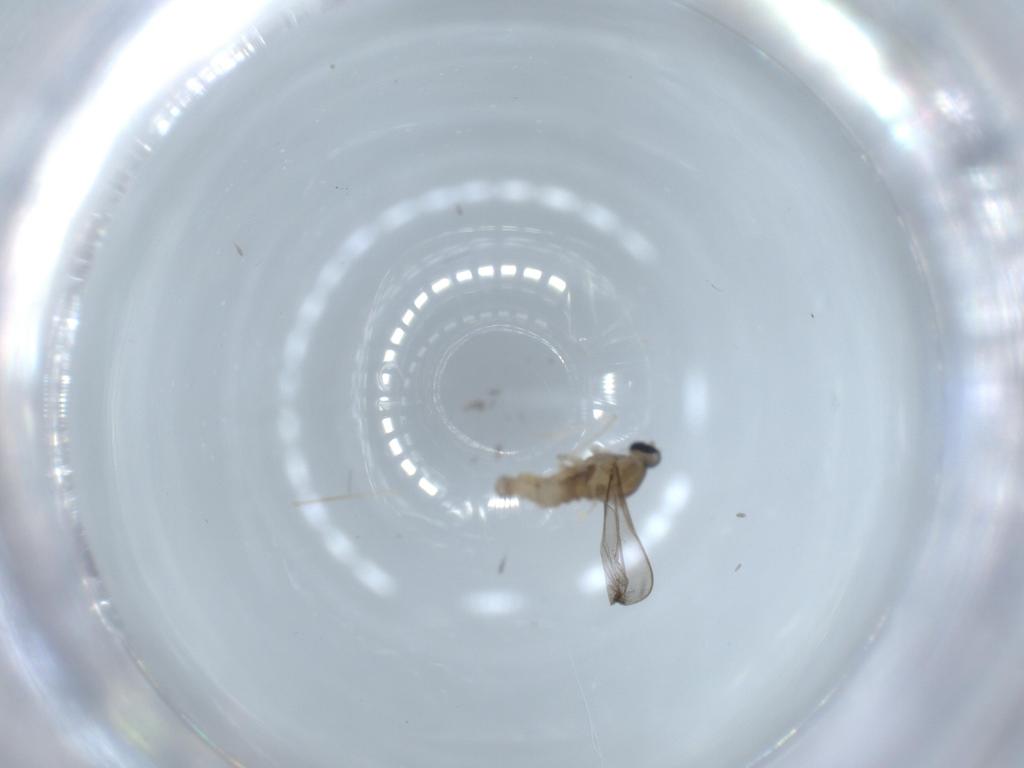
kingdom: Animalia
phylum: Arthropoda
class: Insecta
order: Diptera
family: Cecidomyiidae
